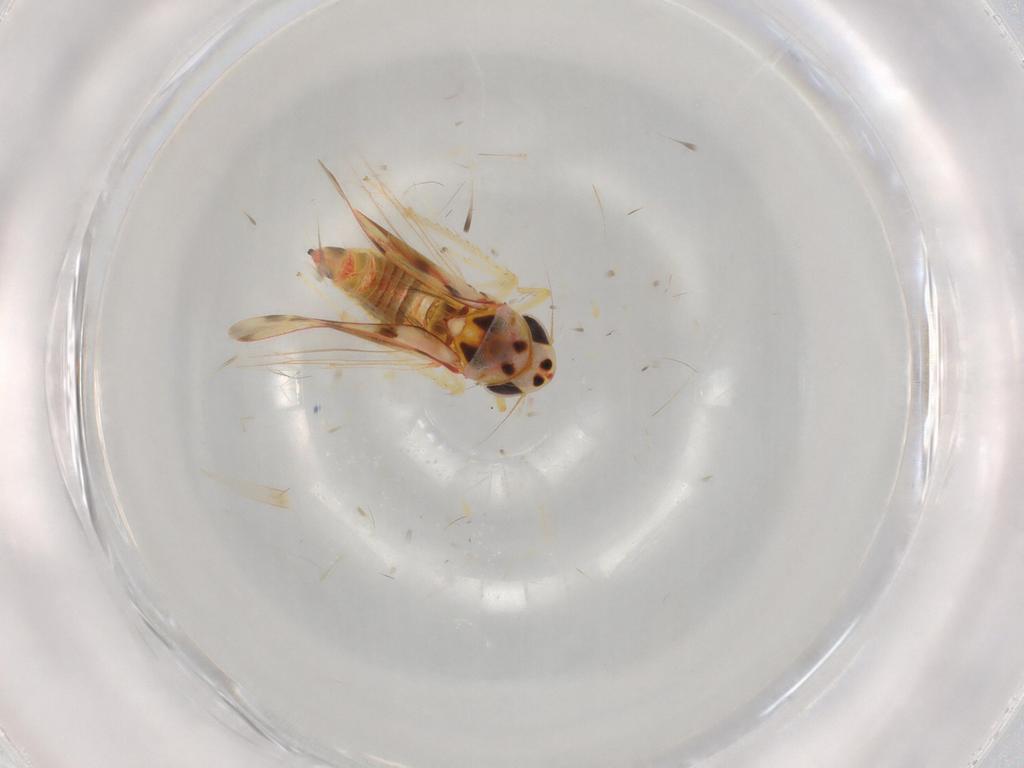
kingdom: Animalia
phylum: Arthropoda
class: Insecta
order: Hemiptera
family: Cicadellidae
